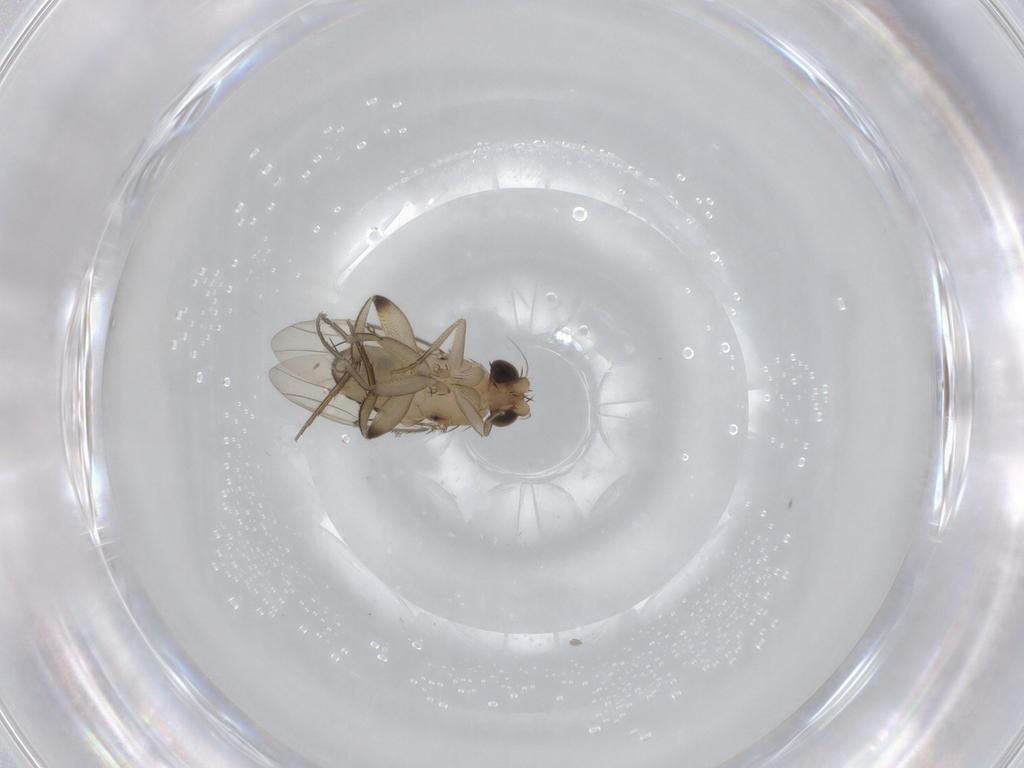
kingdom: Animalia
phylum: Arthropoda
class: Insecta
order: Diptera
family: Phoridae
